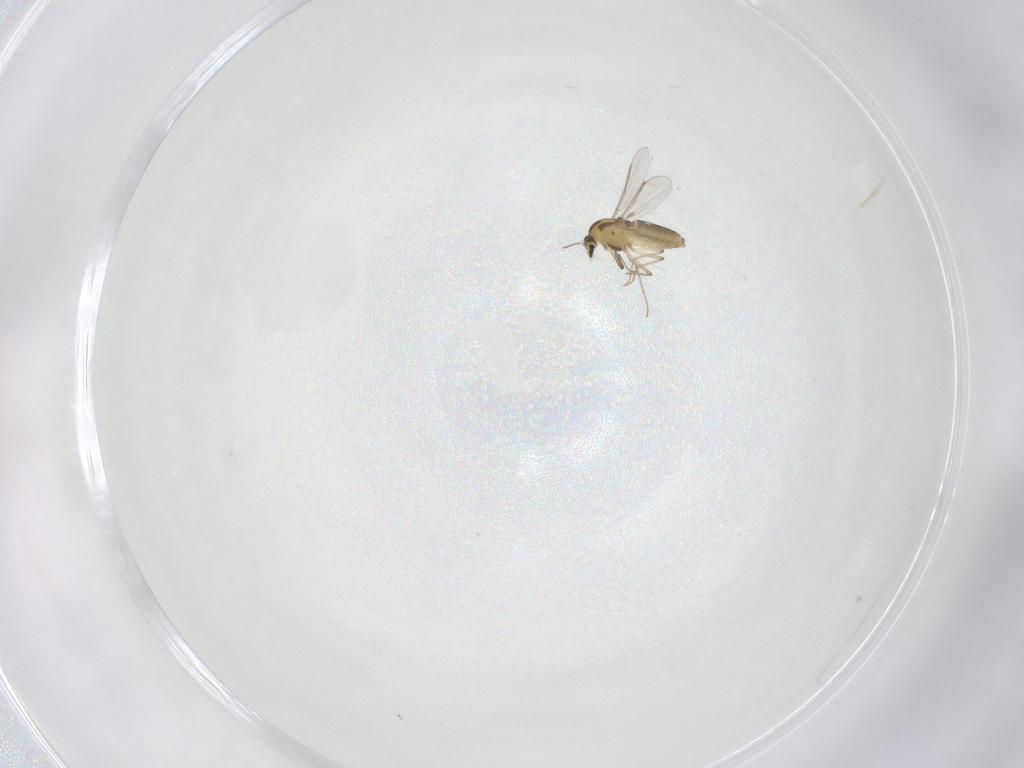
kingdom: Animalia
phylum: Arthropoda
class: Insecta
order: Diptera
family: Chironomidae
